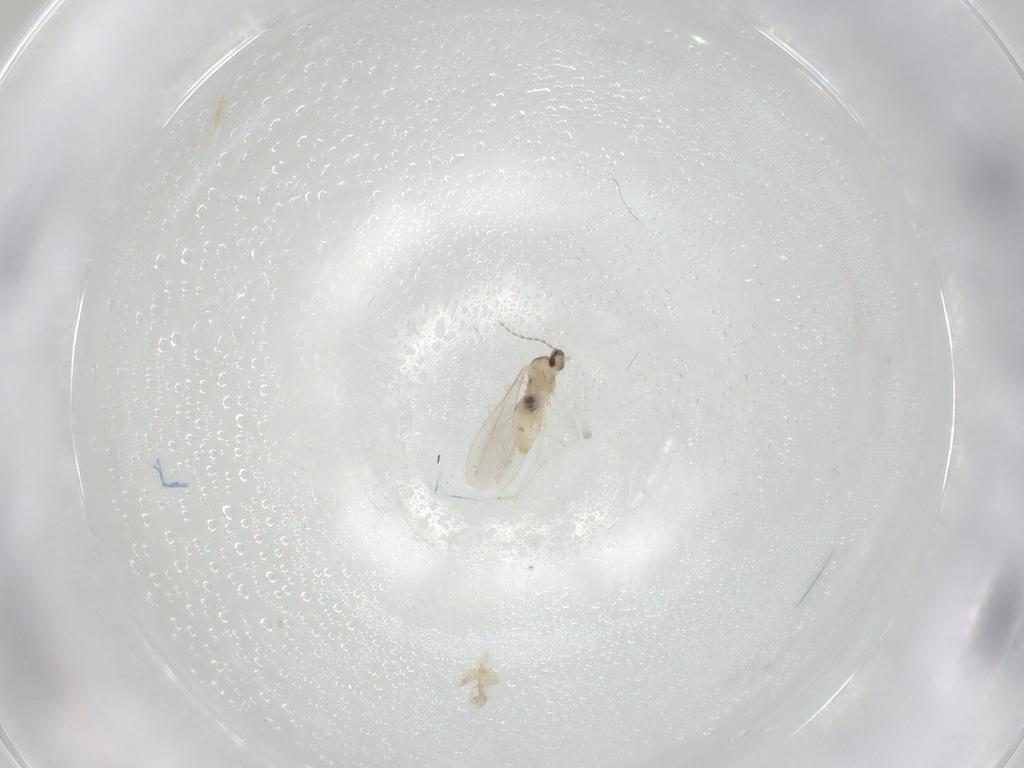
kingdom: Animalia
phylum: Arthropoda
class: Insecta
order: Diptera
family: Cecidomyiidae
